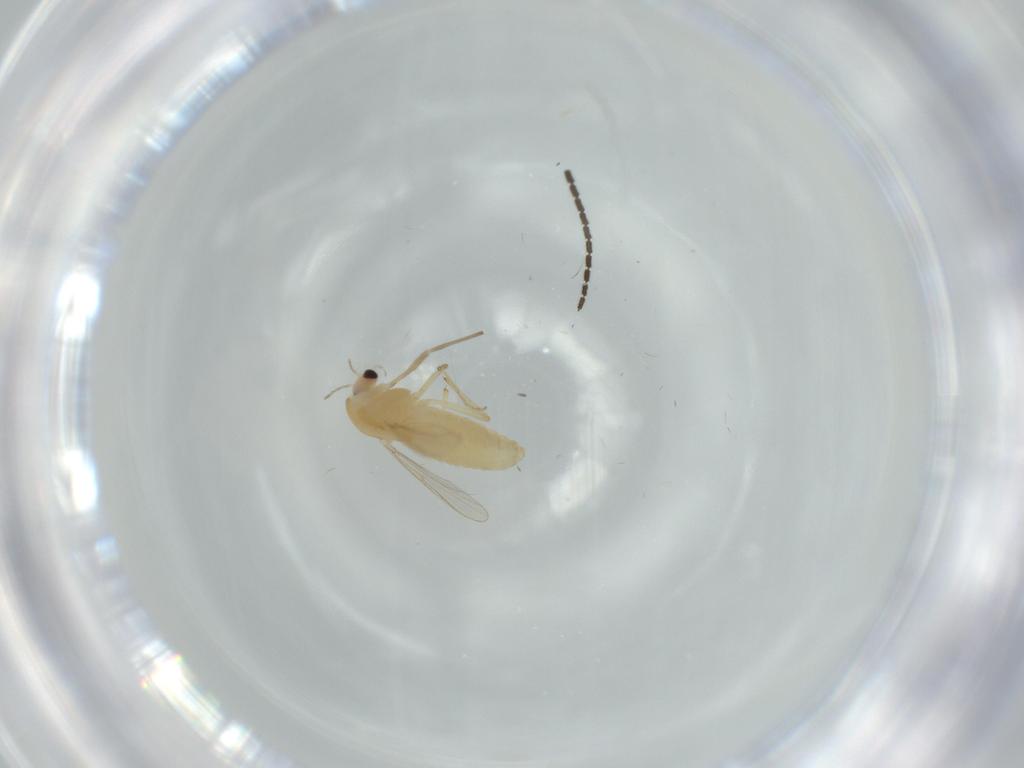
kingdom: Animalia
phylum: Arthropoda
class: Insecta
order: Diptera
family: Chironomidae
